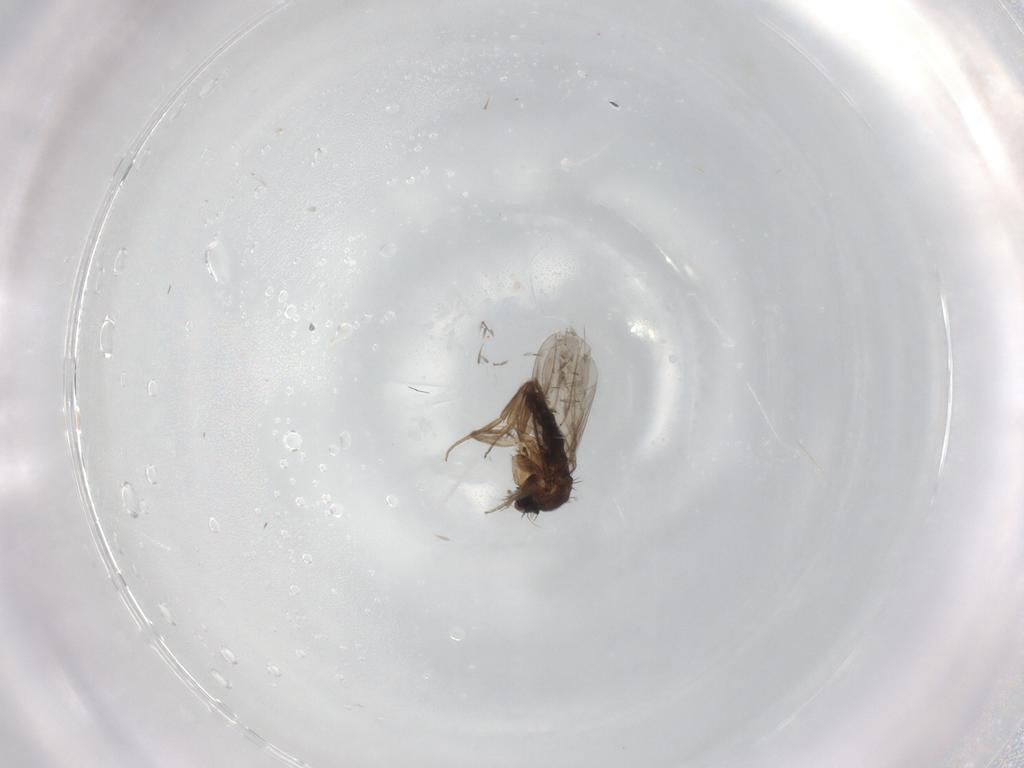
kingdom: Animalia
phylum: Arthropoda
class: Insecta
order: Diptera
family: Phoridae
